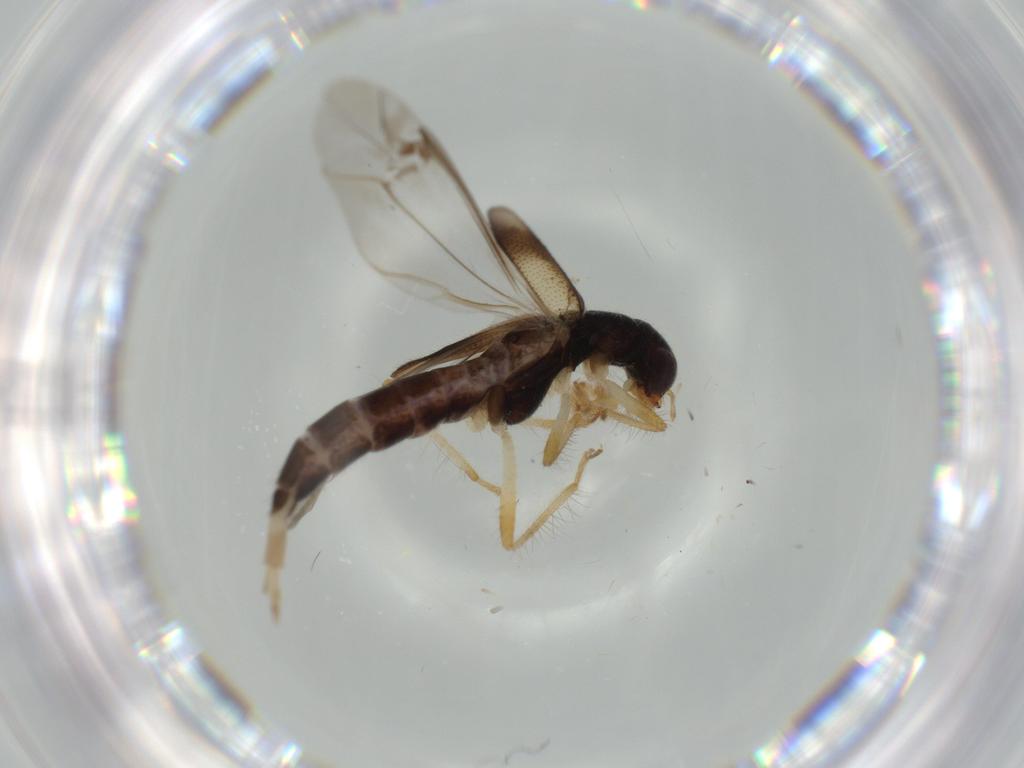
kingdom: Animalia
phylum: Arthropoda
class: Insecta
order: Coleoptera
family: Cleridae
